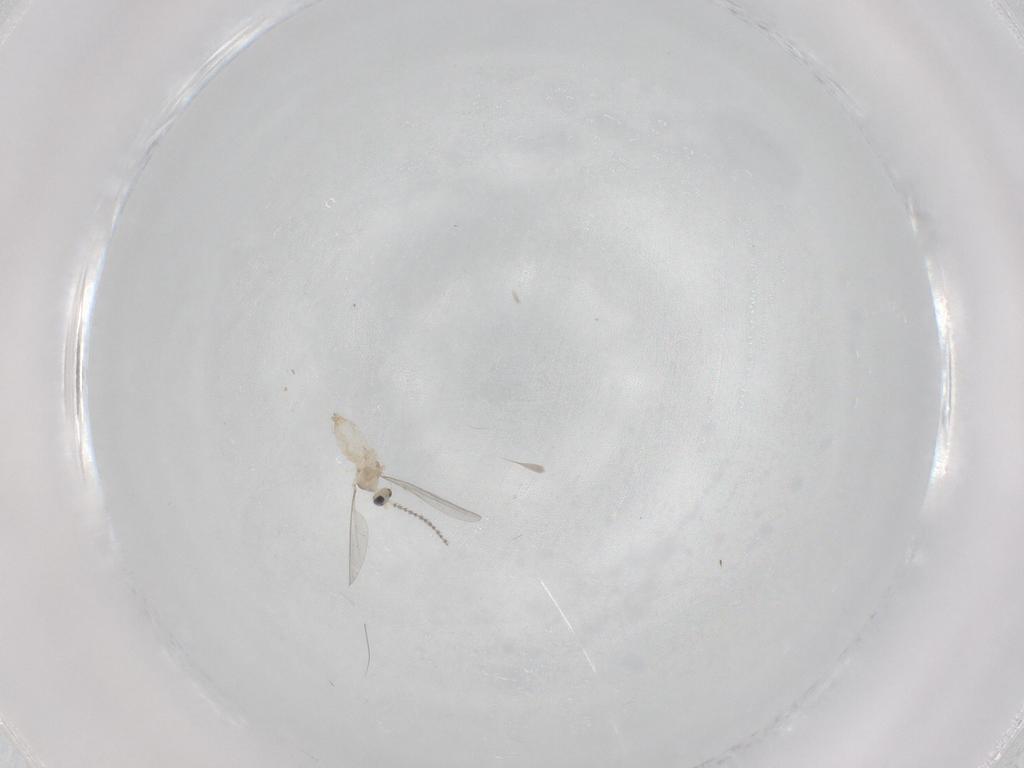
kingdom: Animalia
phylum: Arthropoda
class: Insecta
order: Diptera
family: Psychodidae
